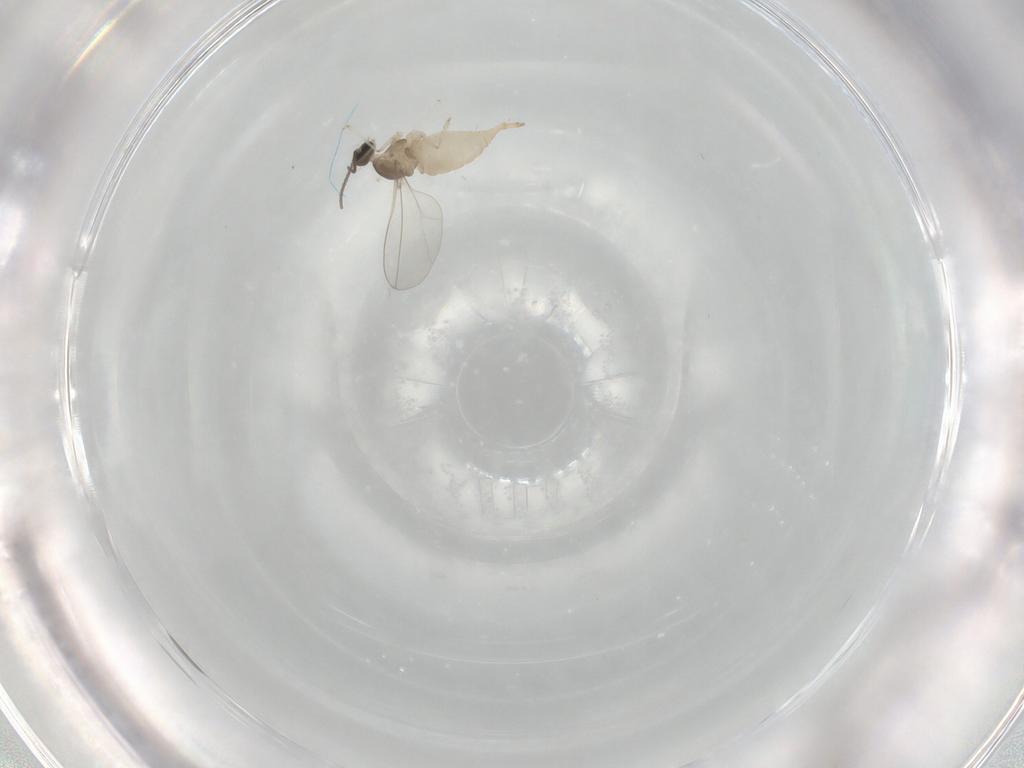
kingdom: Animalia
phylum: Arthropoda
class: Insecta
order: Diptera
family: Cecidomyiidae
